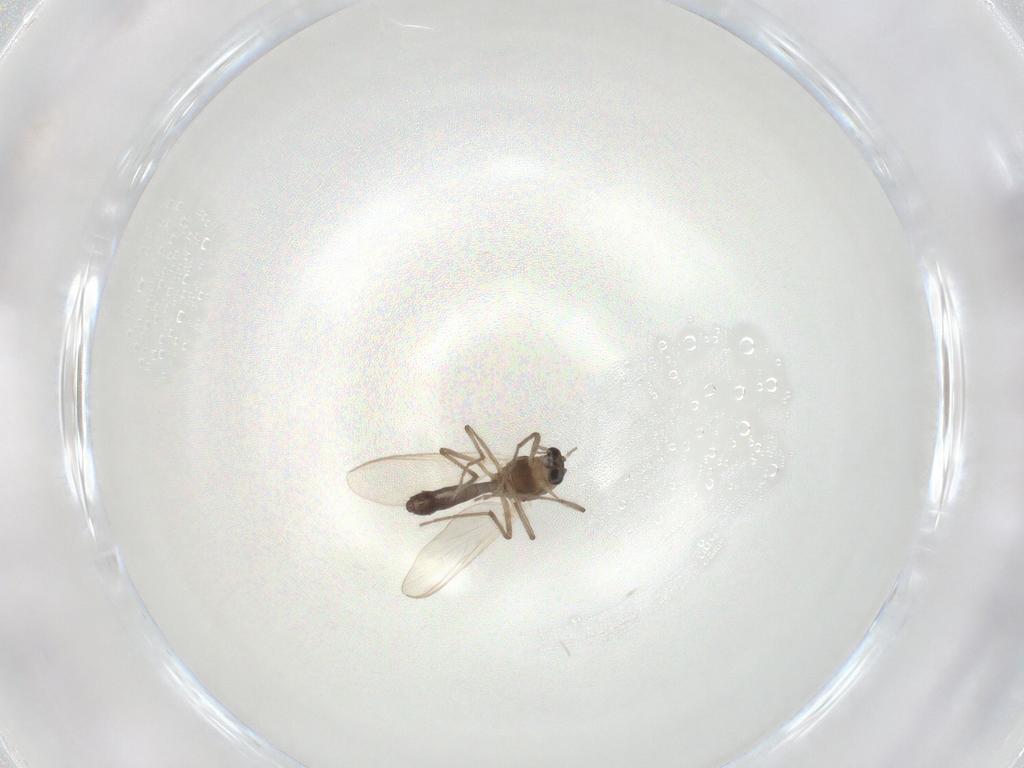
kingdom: Animalia
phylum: Arthropoda
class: Insecta
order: Diptera
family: Chironomidae
